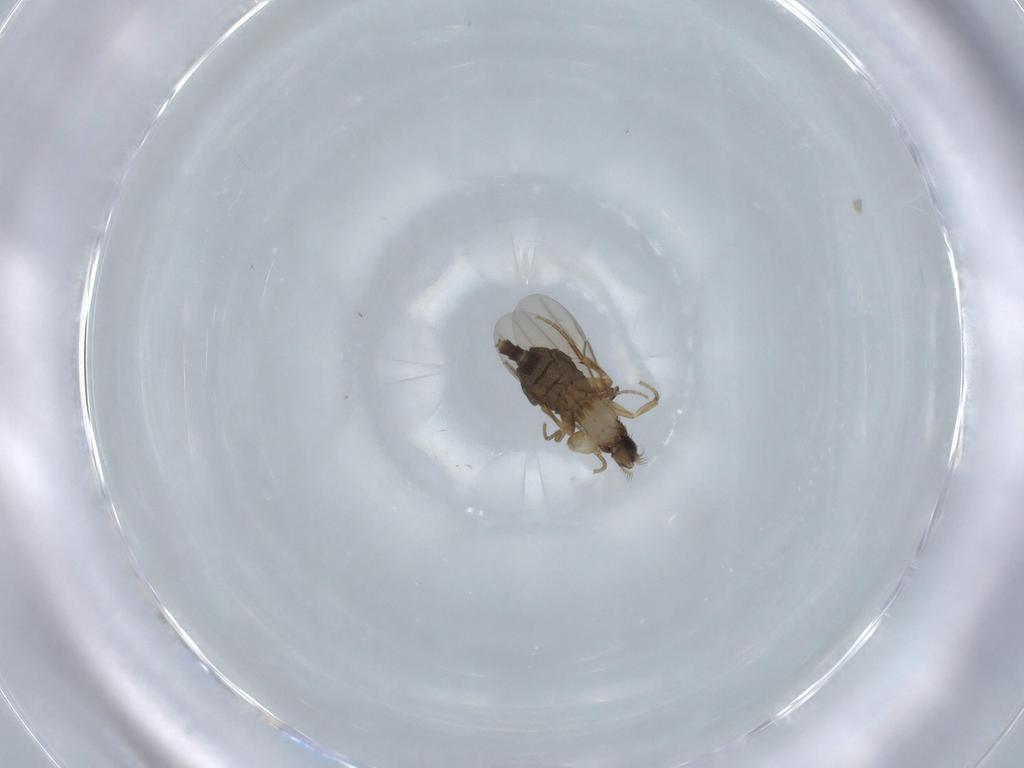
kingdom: Animalia
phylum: Arthropoda
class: Insecta
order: Diptera
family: Phoridae
